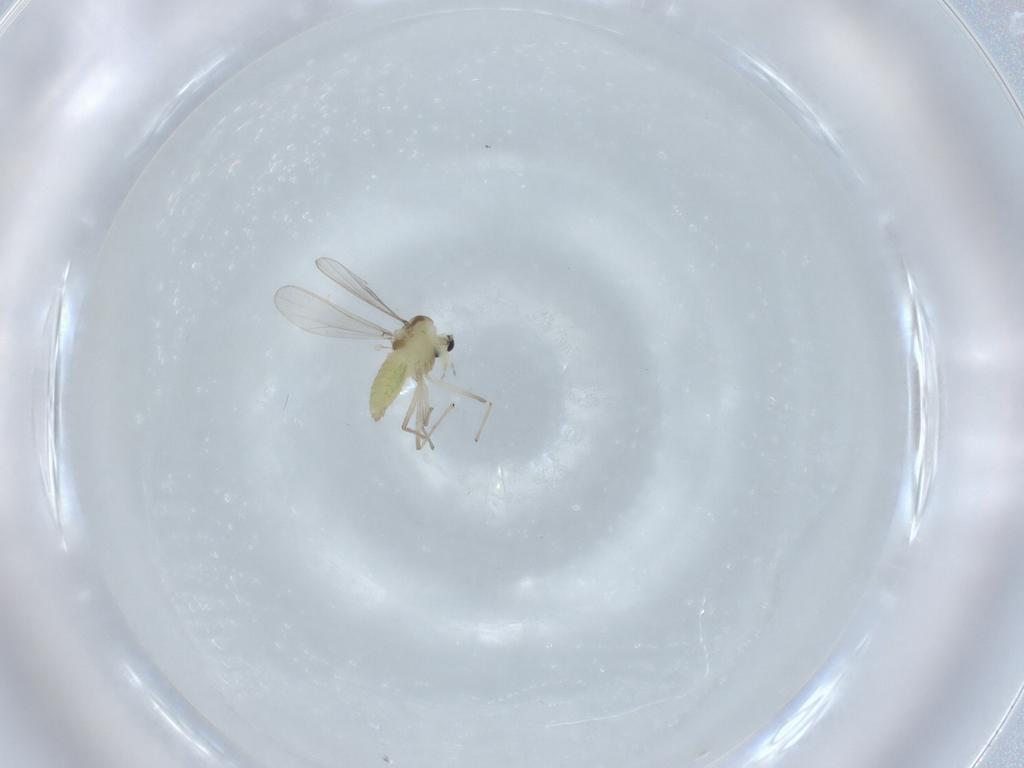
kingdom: Animalia
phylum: Arthropoda
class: Insecta
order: Diptera
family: Chironomidae
